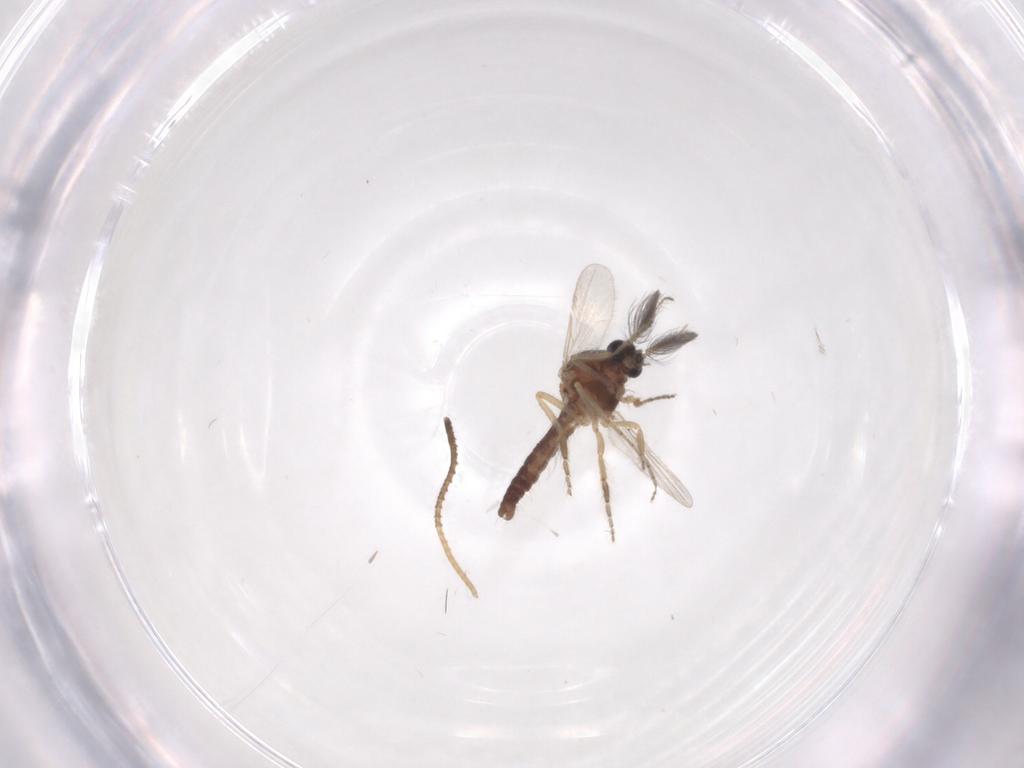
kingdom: Animalia
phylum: Arthropoda
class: Insecta
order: Diptera
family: Ceratopogonidae
